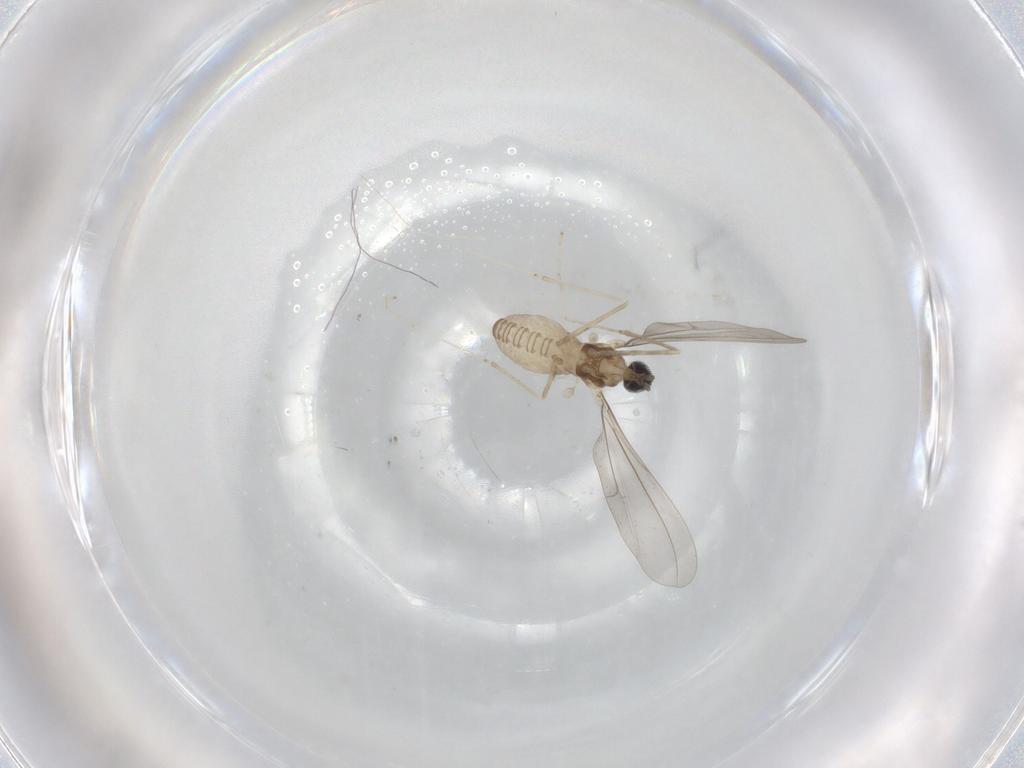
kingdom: Animalia
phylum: Arthropoda
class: Insecta
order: Diptera
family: Cecidomyiidae
